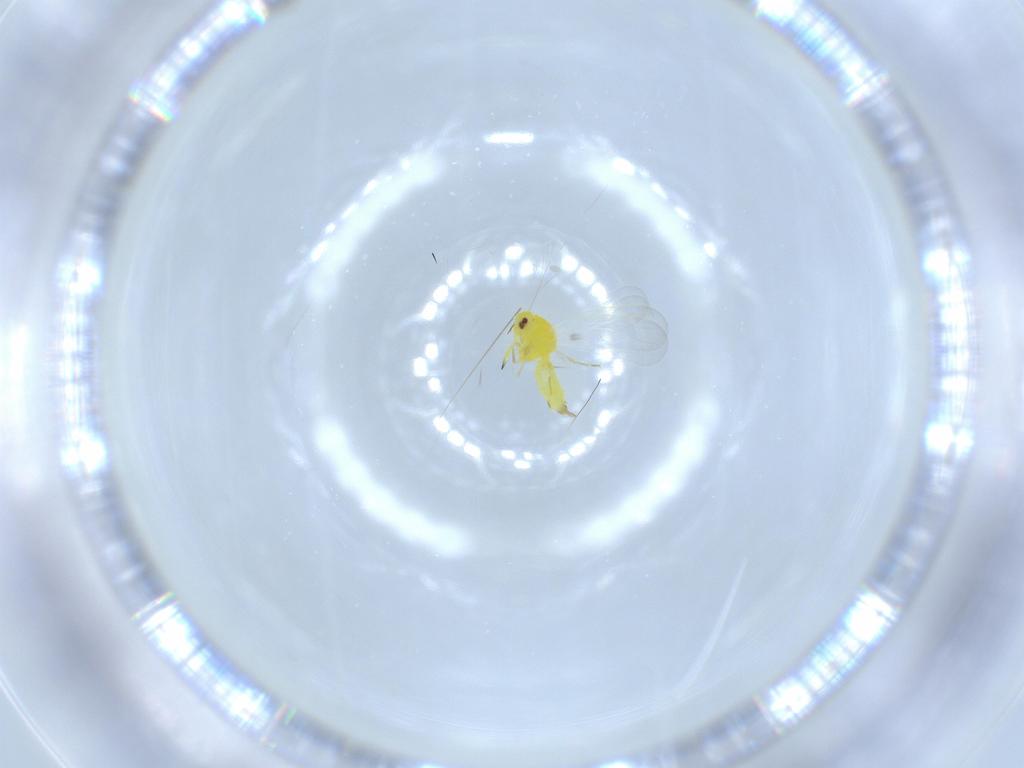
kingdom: Animalia
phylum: Arthropoda
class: Insecta
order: Hemiptera
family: Aleyrodidae
